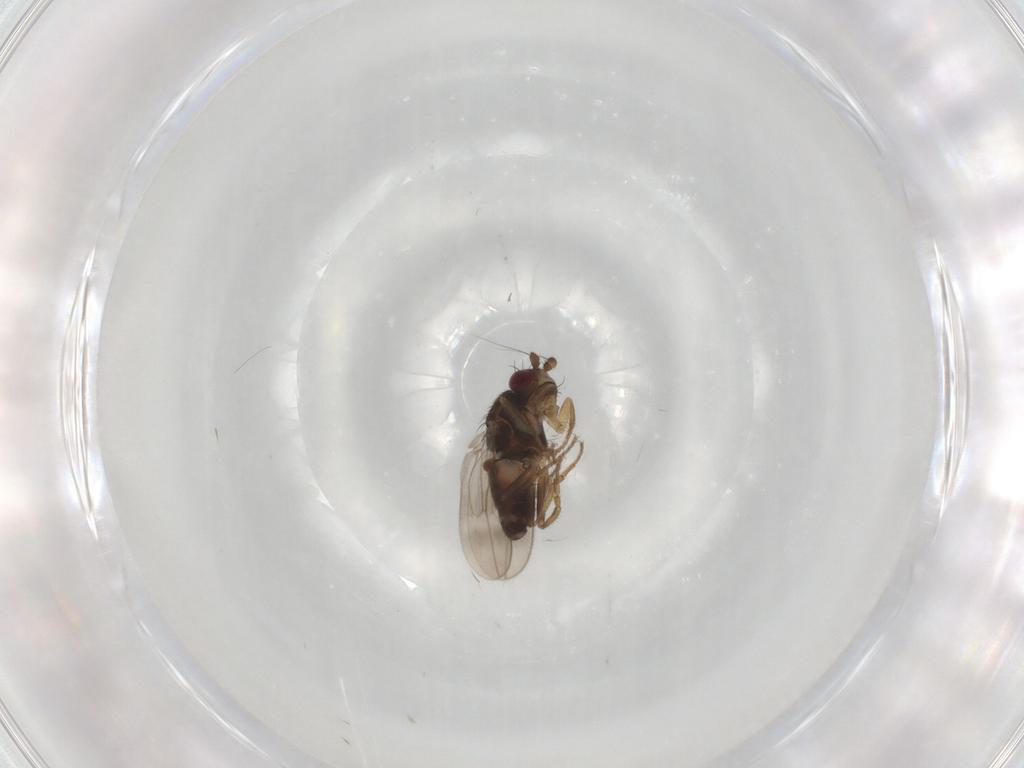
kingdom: Animalia
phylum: Arthropoda
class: Insecta
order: Diptera
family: Sphaeroceridae
